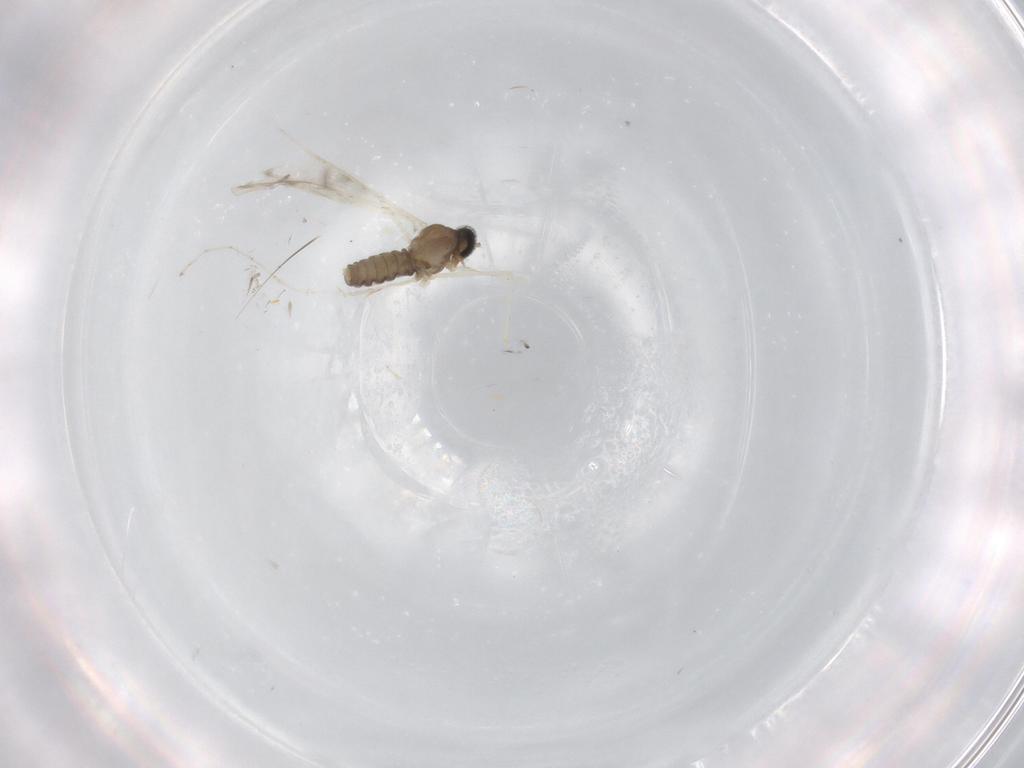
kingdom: Animalia
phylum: Arthropoda
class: Insecta
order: Diptera
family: Cecidomyiidae
